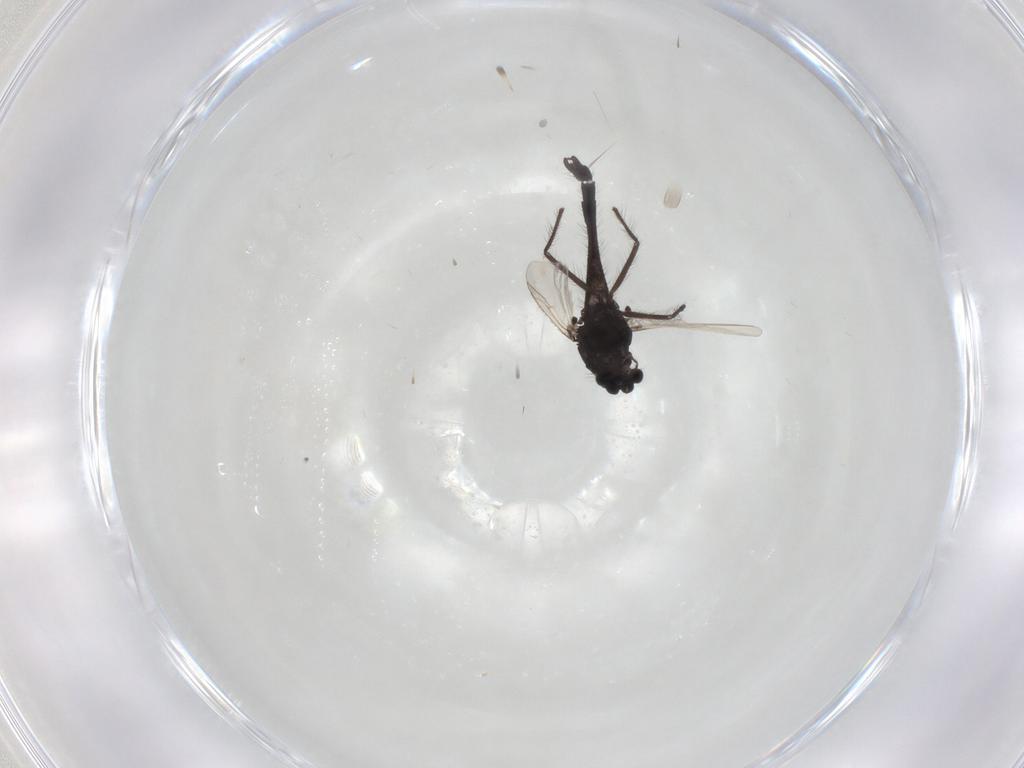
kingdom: Animalia
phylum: Arthropoda
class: Insecta
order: Diptera
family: Chironomidae
